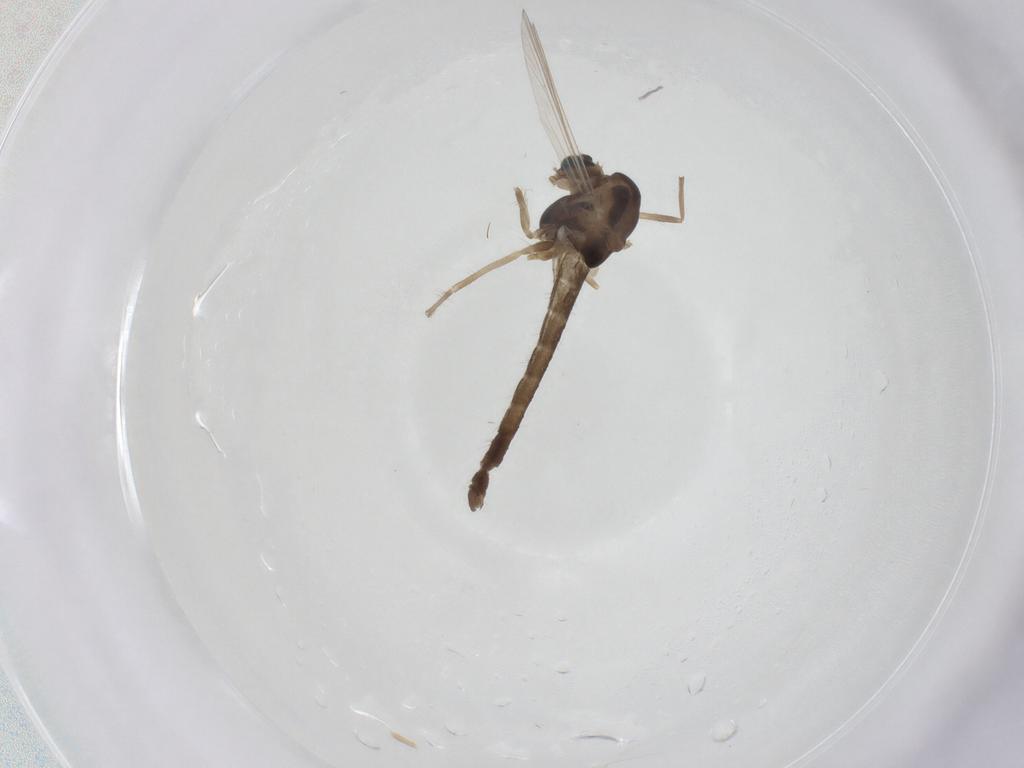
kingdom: Animalia
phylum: Arthropoda
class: Insecta
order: Diptera
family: Chironomidae
